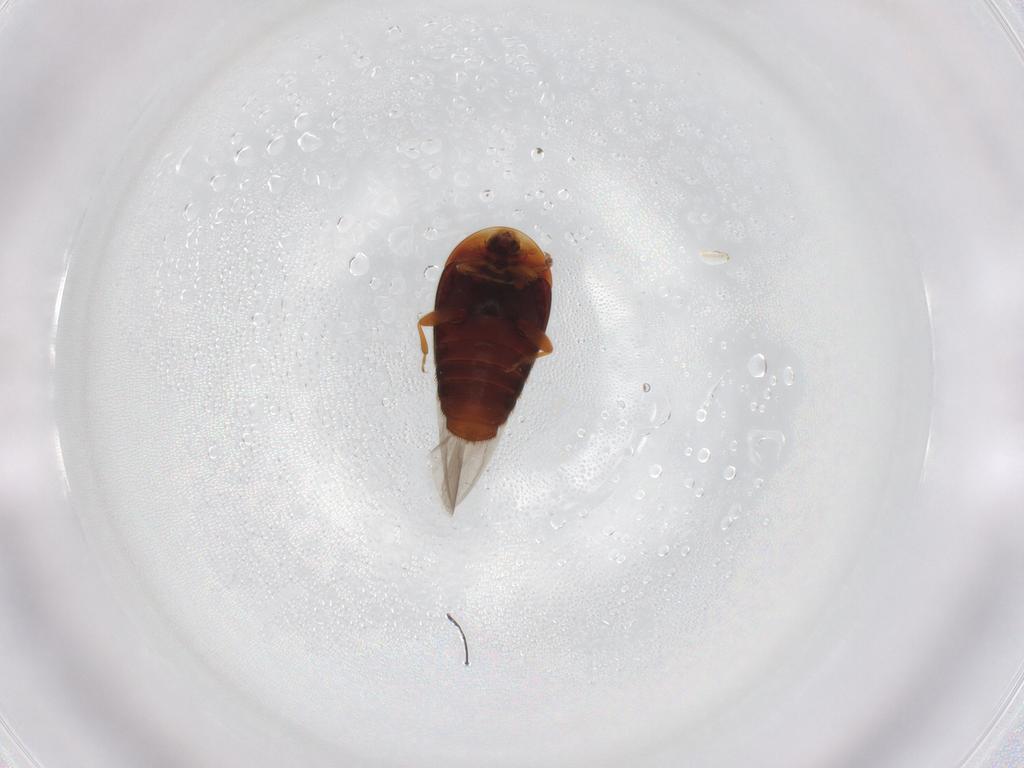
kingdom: Animalia
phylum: Arthropoda
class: Insecta
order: Coleoptera
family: Corylophidae
